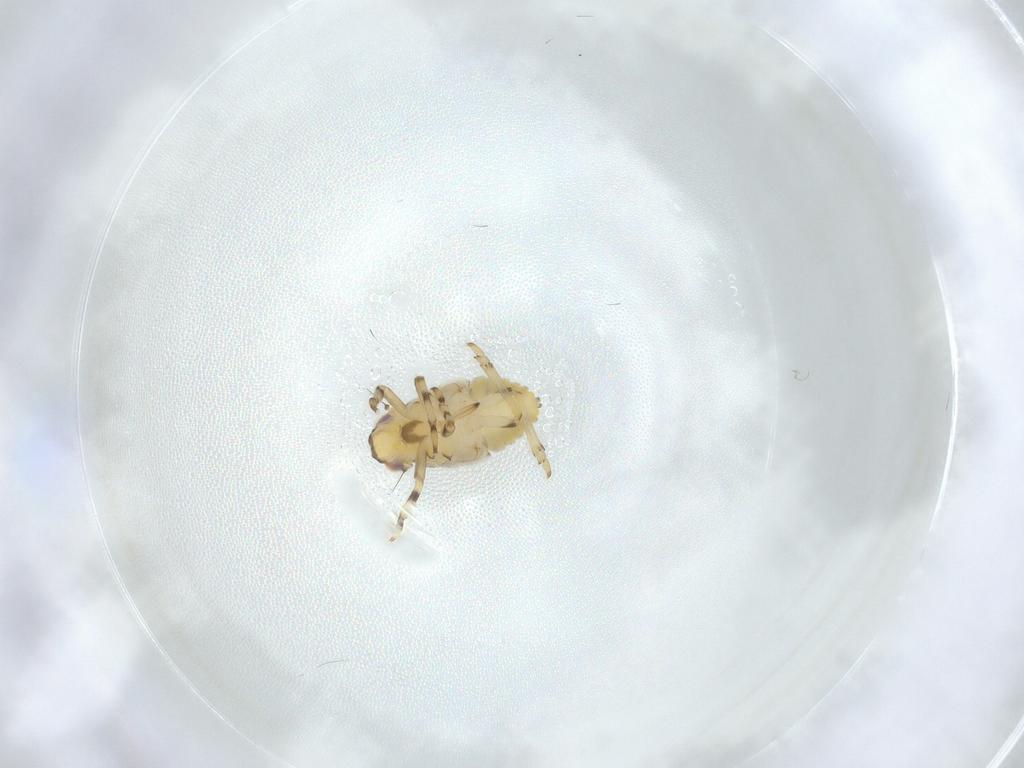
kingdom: Animalia
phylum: Arthropoda
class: Insecta
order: Hemiptera
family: Issidae
